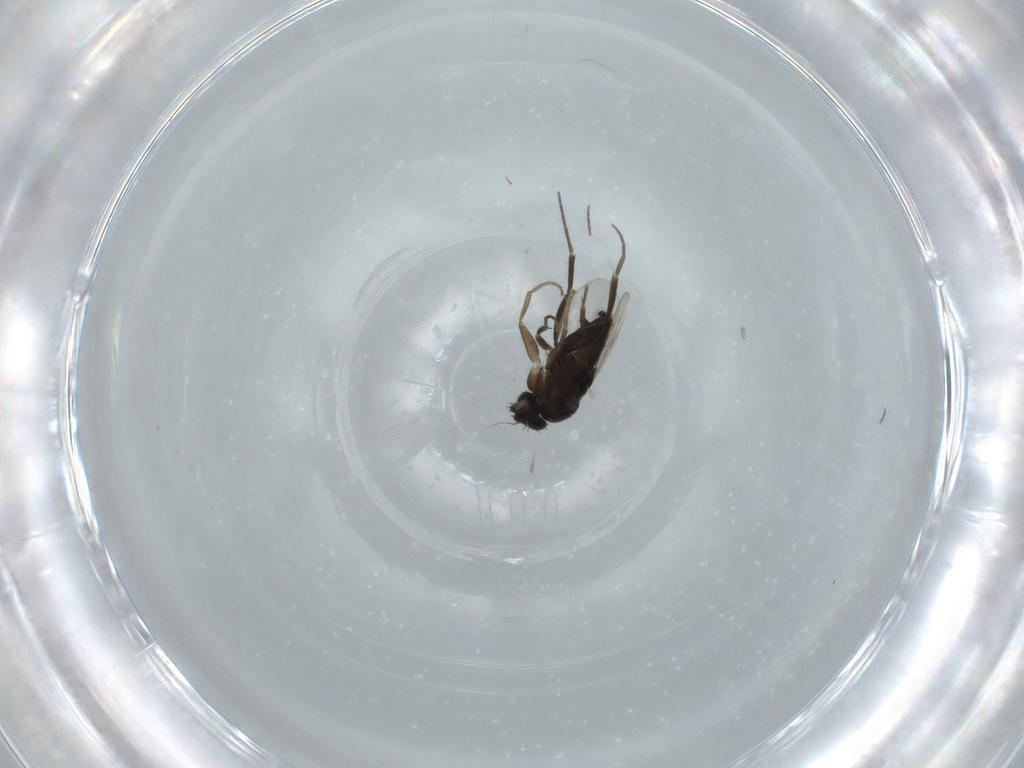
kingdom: Animalia
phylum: Arthropoda
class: Insecta
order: Diptera
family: Phoridae
